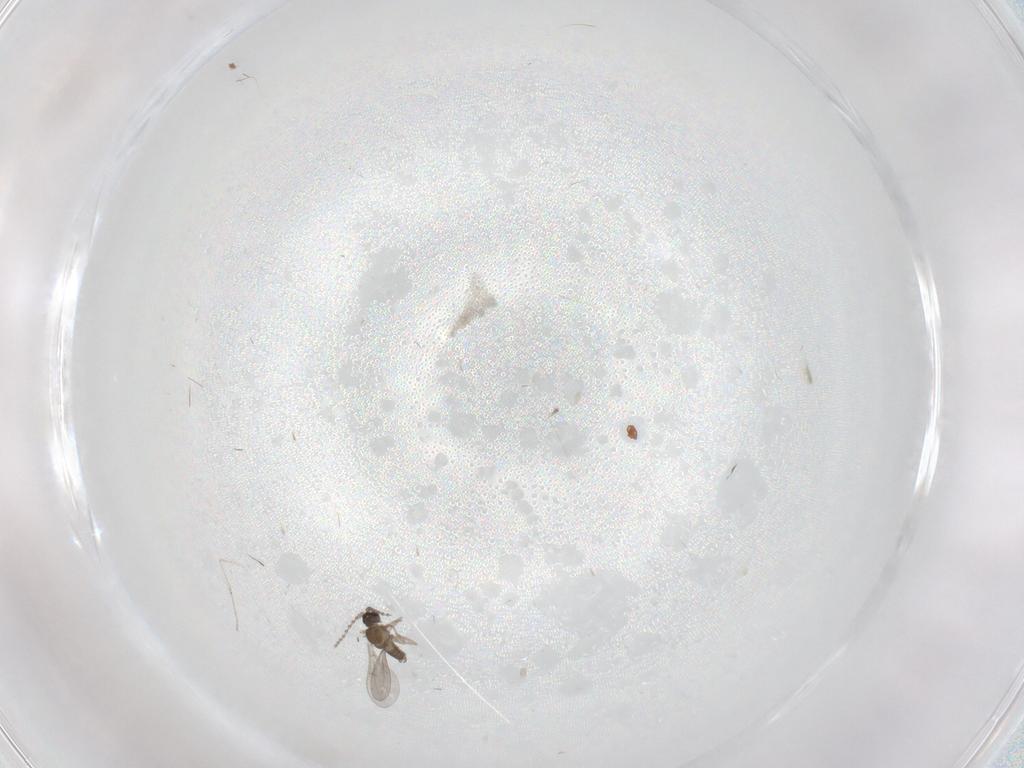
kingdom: Animalia
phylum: Arthropoda
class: Insecta
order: Diptera
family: Cecidomyiidae
